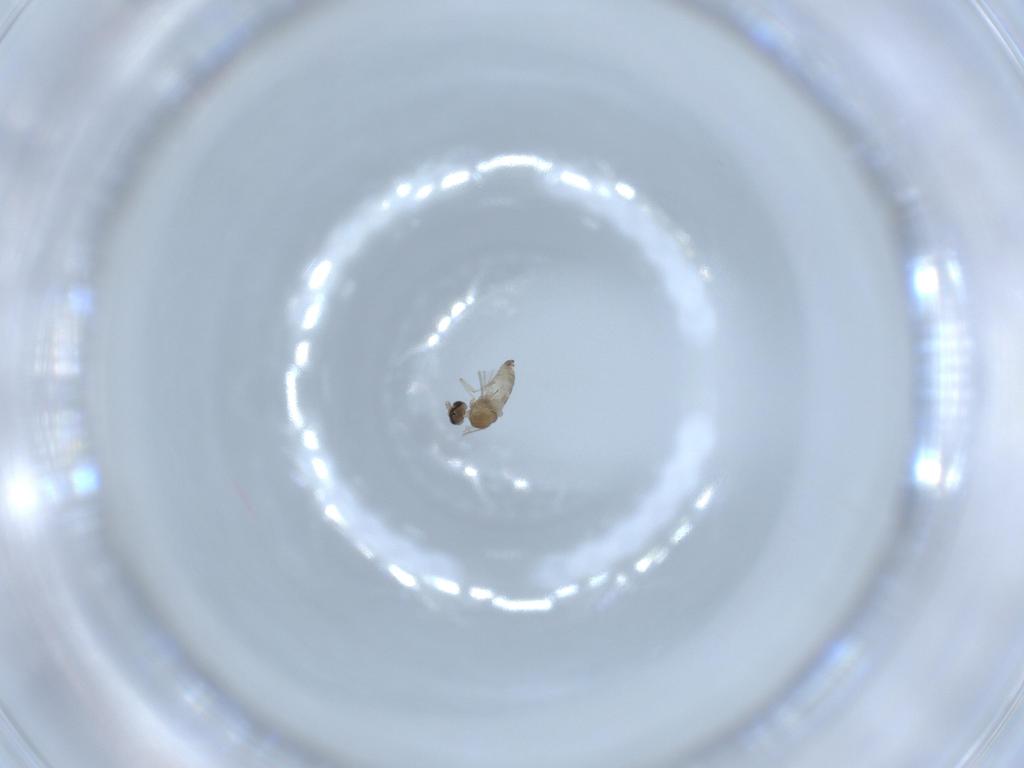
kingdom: Animalia
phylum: Arthropoda
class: Insecta
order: Diptera
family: Cecidomyiidae
